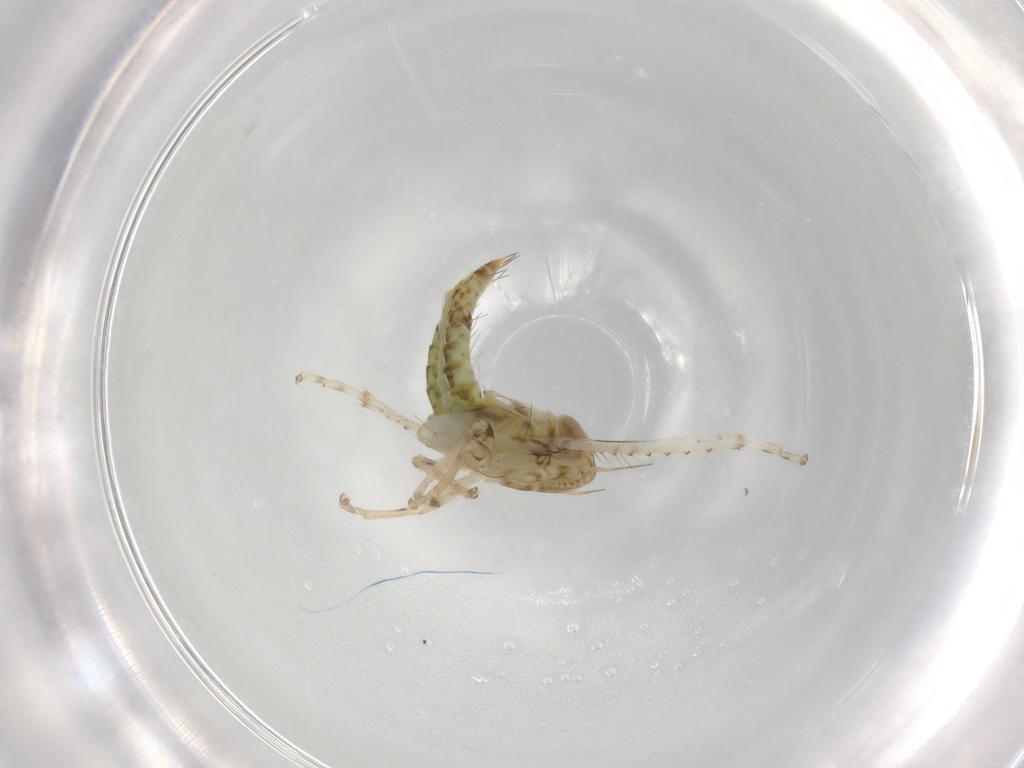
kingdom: Animalia
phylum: Arthropoda
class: Insecta
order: Hemiptera
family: Cicadellidae
